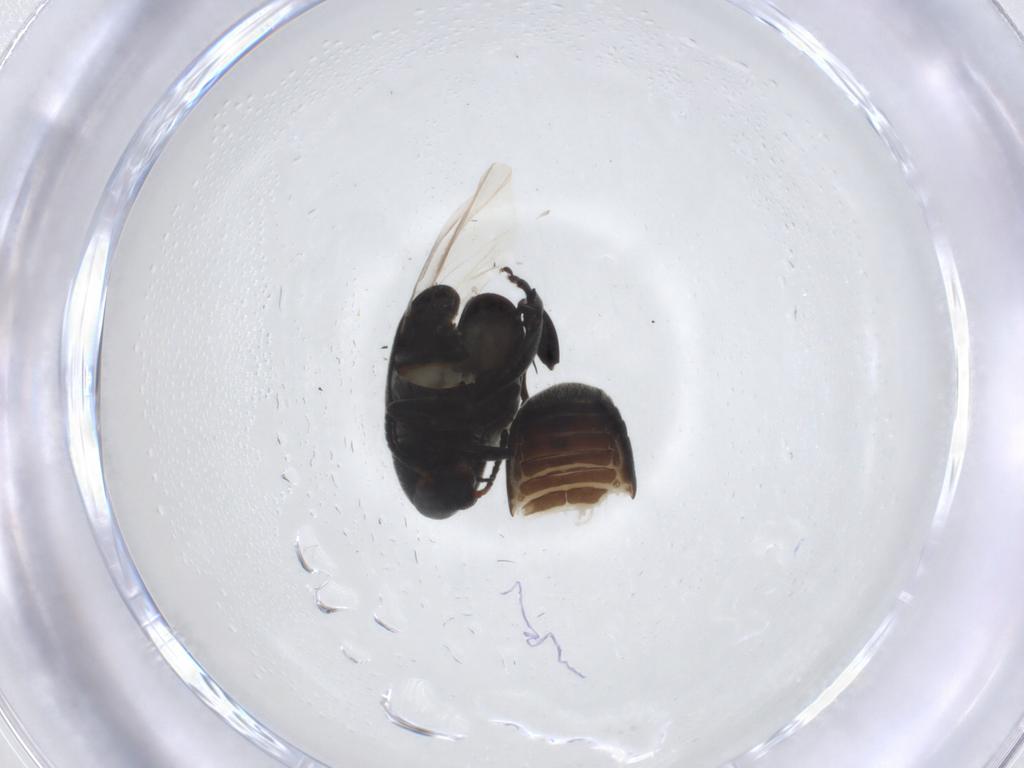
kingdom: Animalia
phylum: Arthropoda
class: Insecta
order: Coleoptera
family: Chrysomelidae
